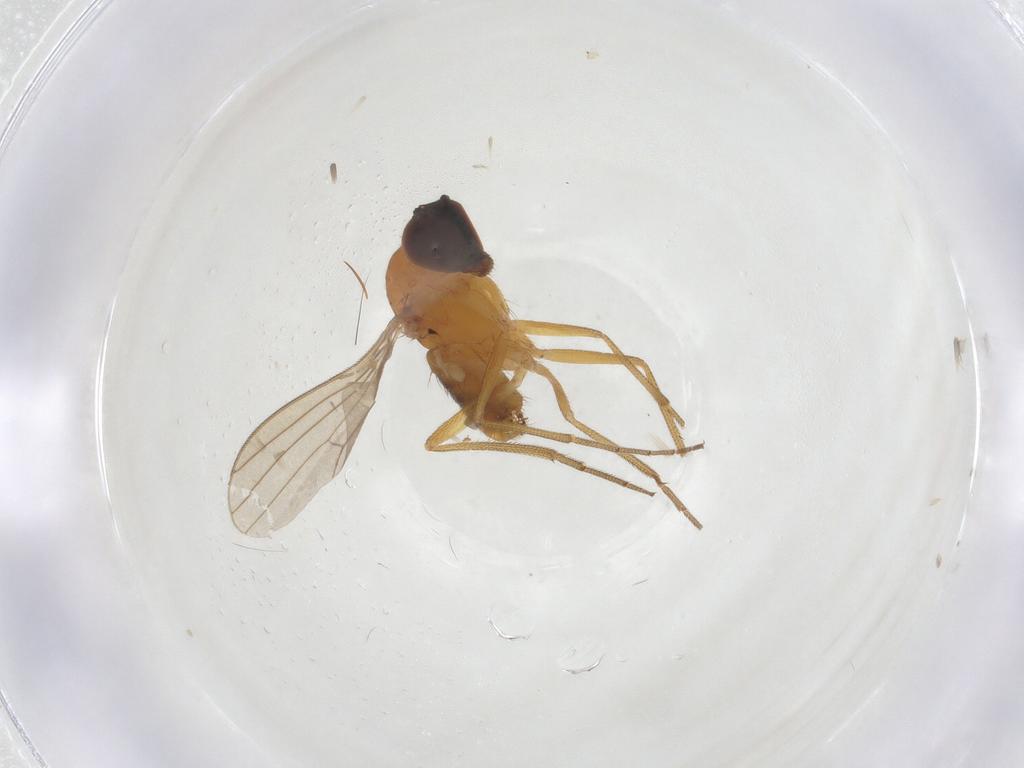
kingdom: Animalia
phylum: Arthropoda
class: Insecta
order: Diptera
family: Dolichopodidae
